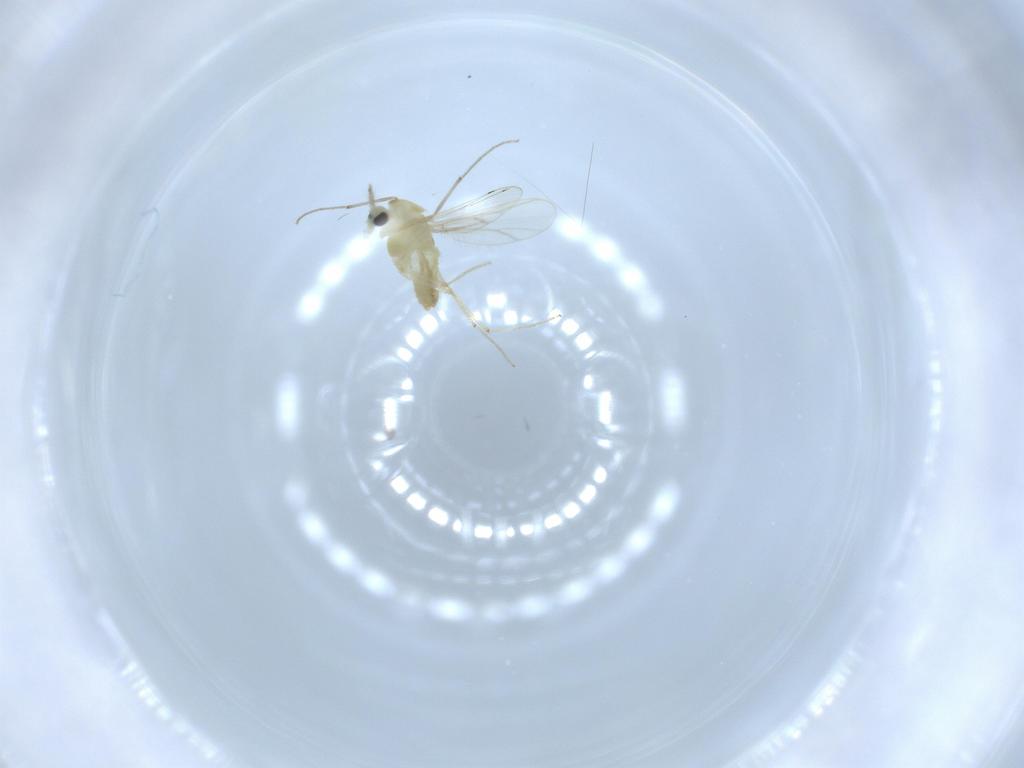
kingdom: Animalia
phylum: Arthropoda
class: Insecta
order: Diptera
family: Chironomidae
